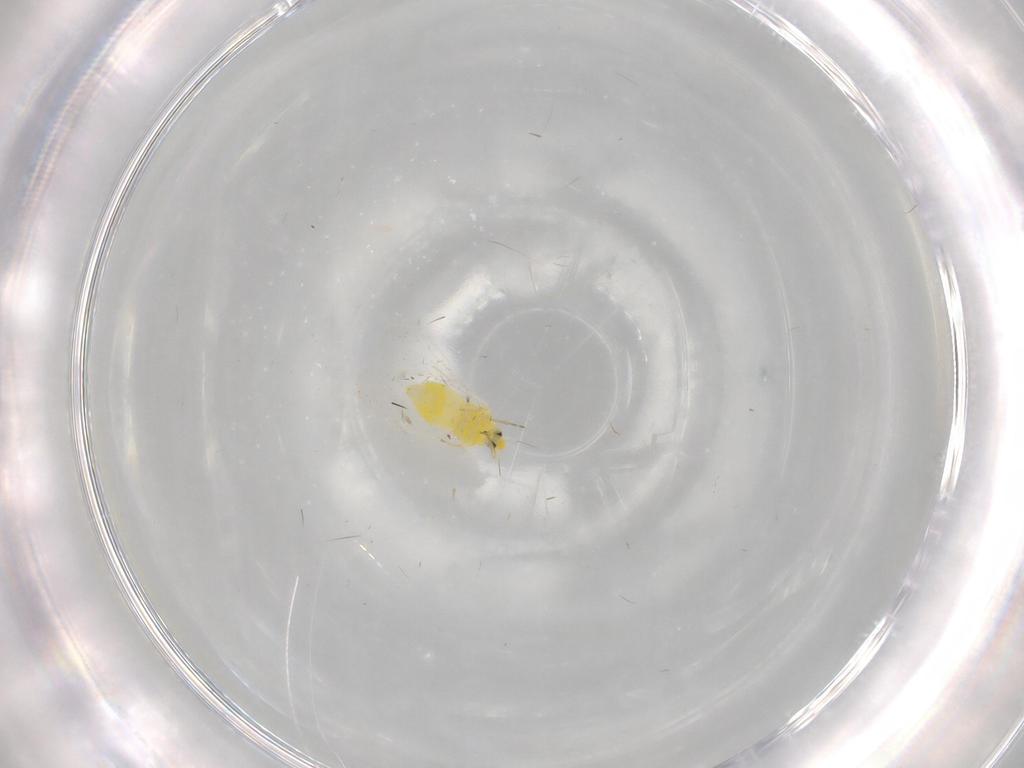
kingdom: Animalia
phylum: Arthropoda
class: Insecta
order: Hemiptera
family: Aleyrodidae
